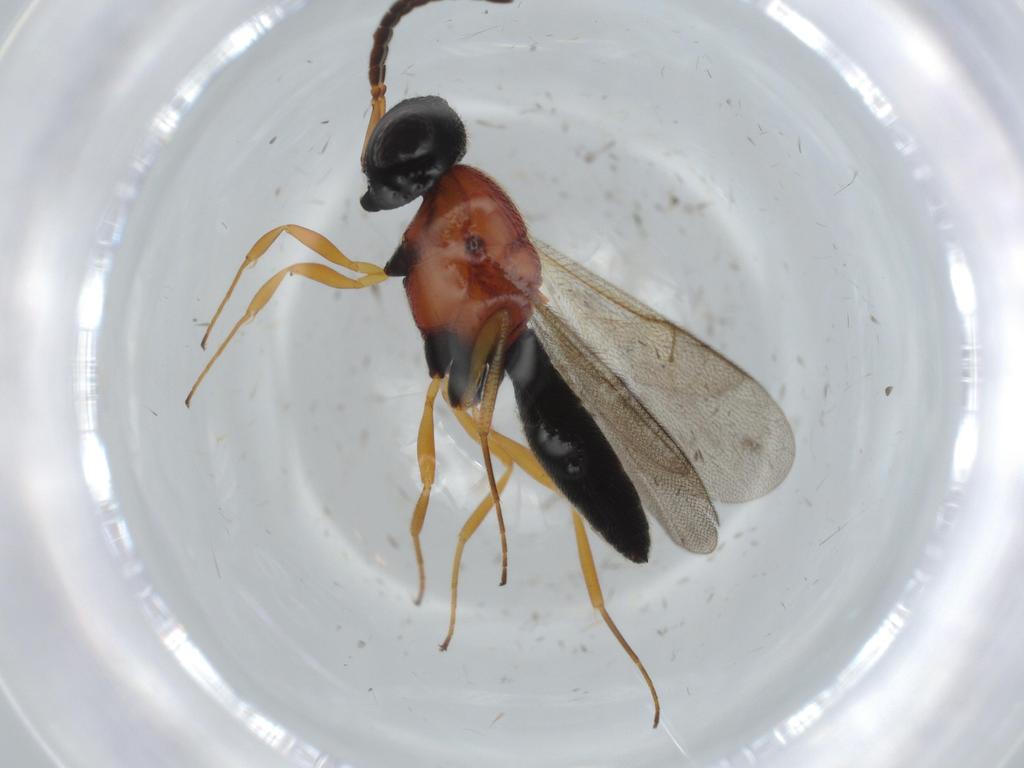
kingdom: Animalia
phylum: Arthropoda
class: Insecta
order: Hymenoptera
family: Scelionidae
